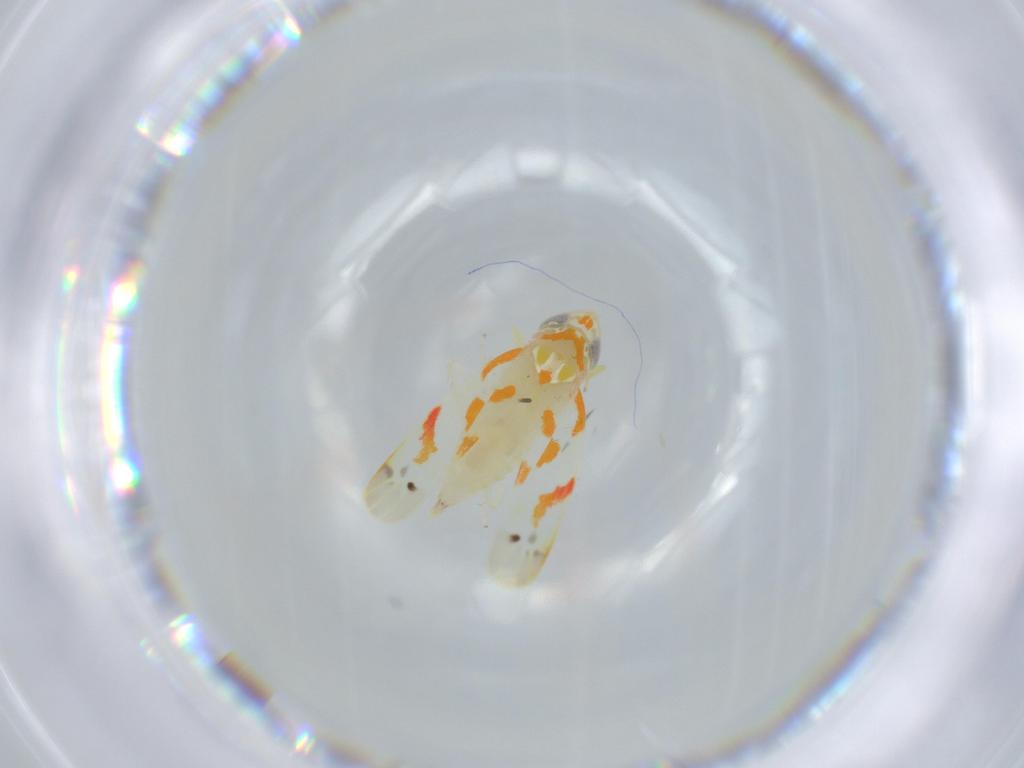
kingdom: Animalia
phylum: Arthropoda
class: Insecta
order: Hemiptera
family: Cicadellidae
